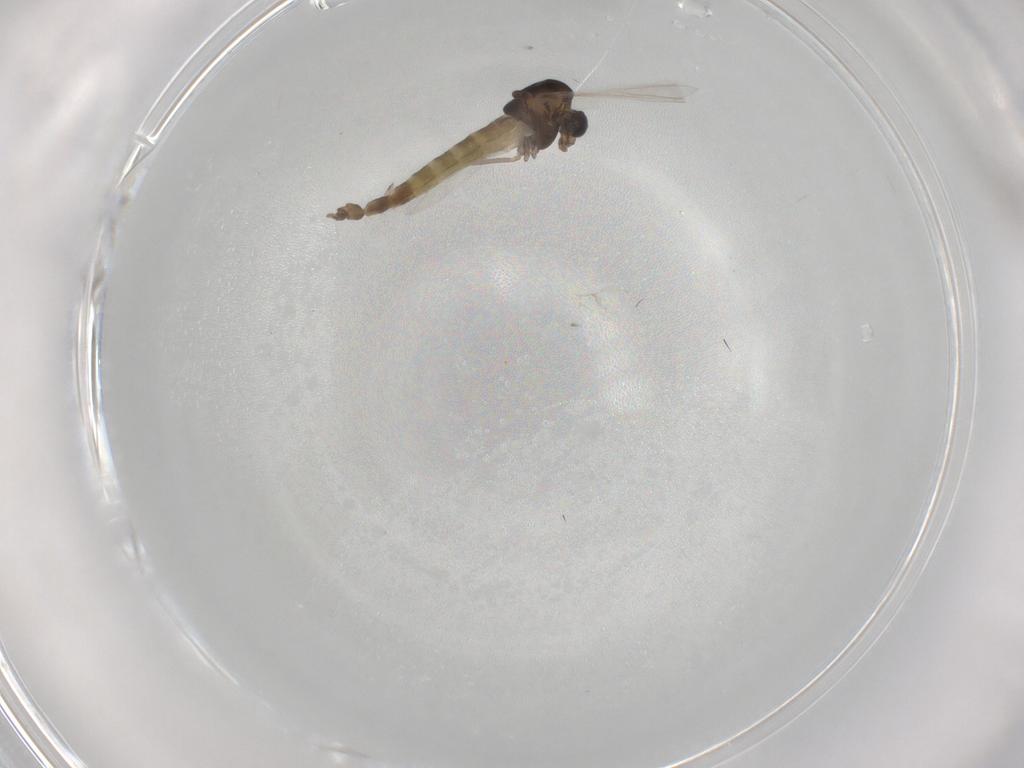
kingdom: Animalia
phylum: Arthropoda
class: Insecta
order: Diptera
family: Chironomidae
